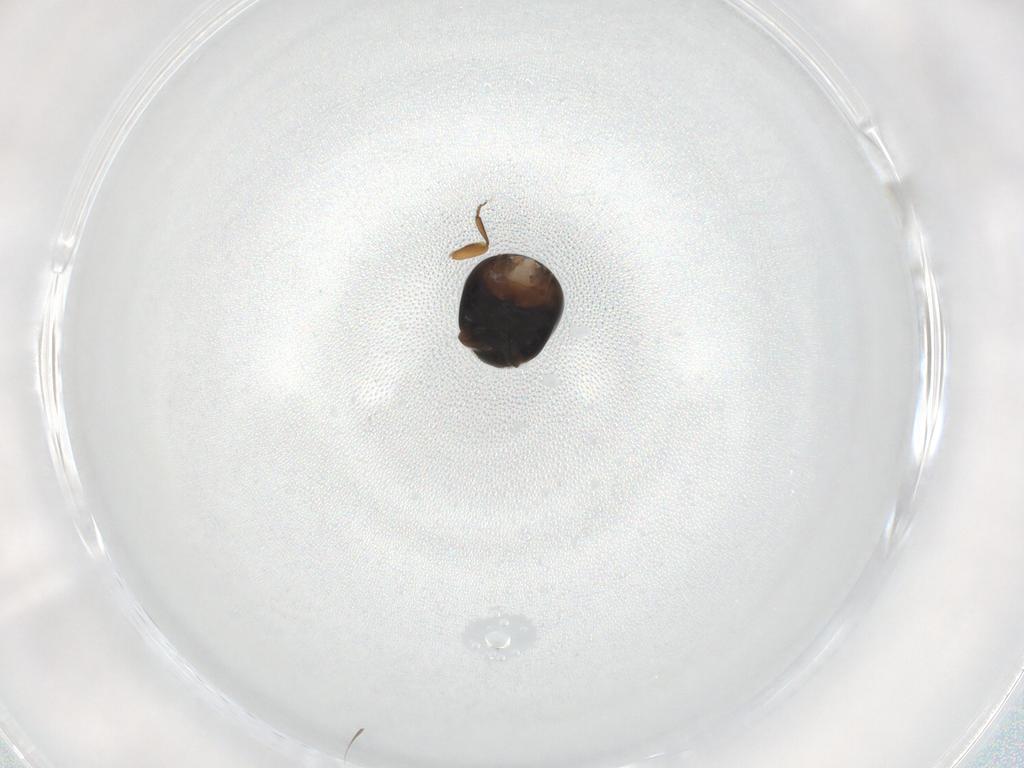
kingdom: Animalia
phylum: Arthropoda
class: Insecta
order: Coleoptera
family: Cybocephalidae
